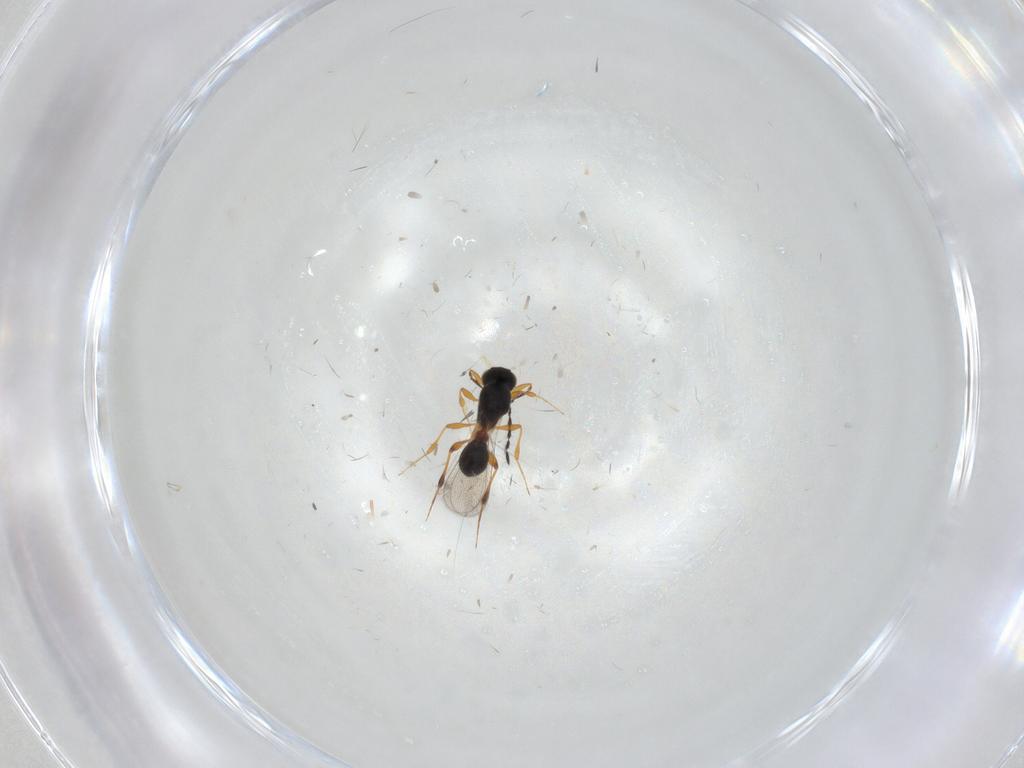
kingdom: Animalia
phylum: Arthropoda
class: Insecta
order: Hymenoptera
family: Platygastridae
